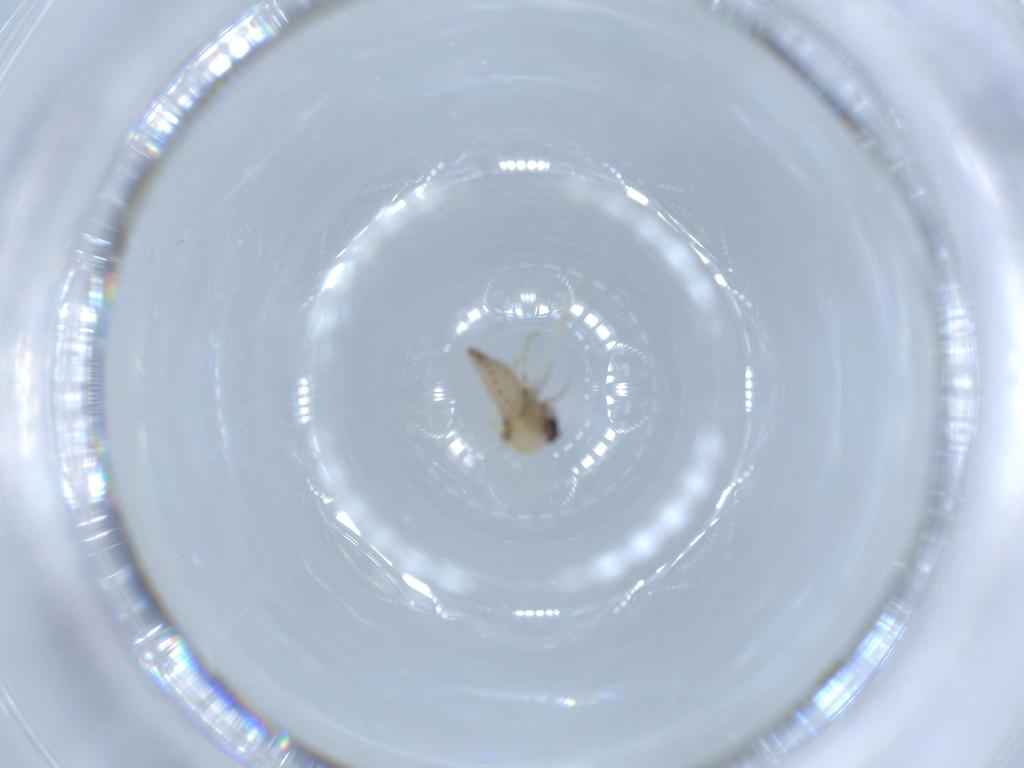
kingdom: Animalia
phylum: Arthropoda
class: Insecta
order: Diptera
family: Ceratopogonidae
